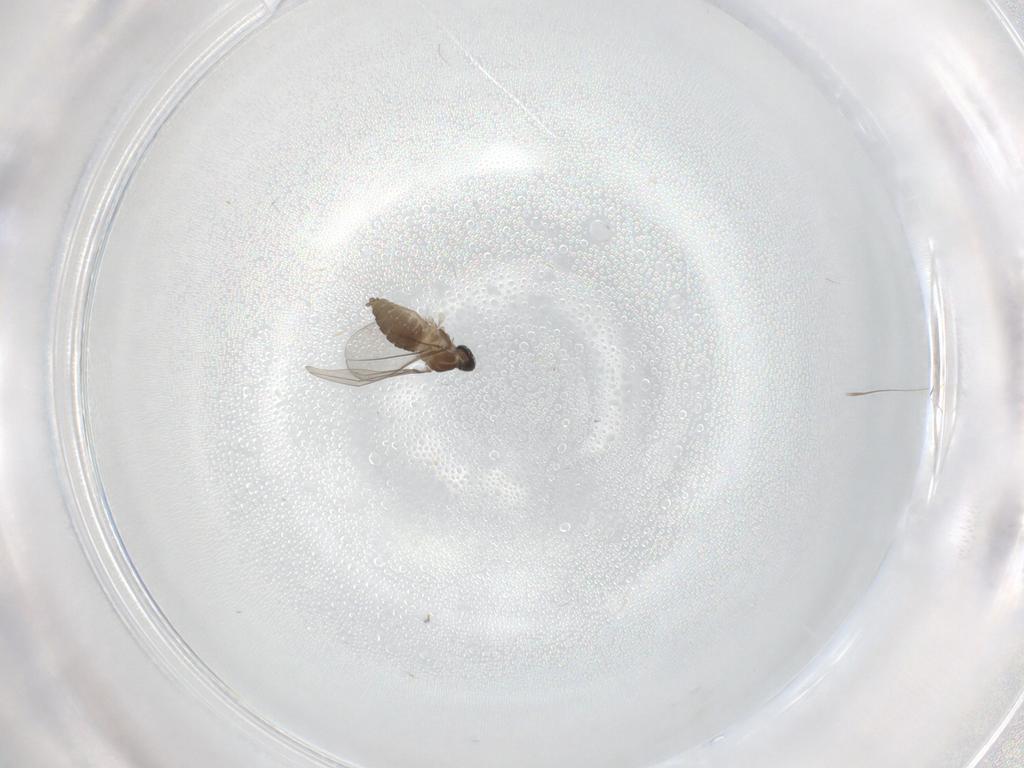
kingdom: Animalia
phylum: Arthropoda
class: Insecta
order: Diptera
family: Cecidomyiidae
